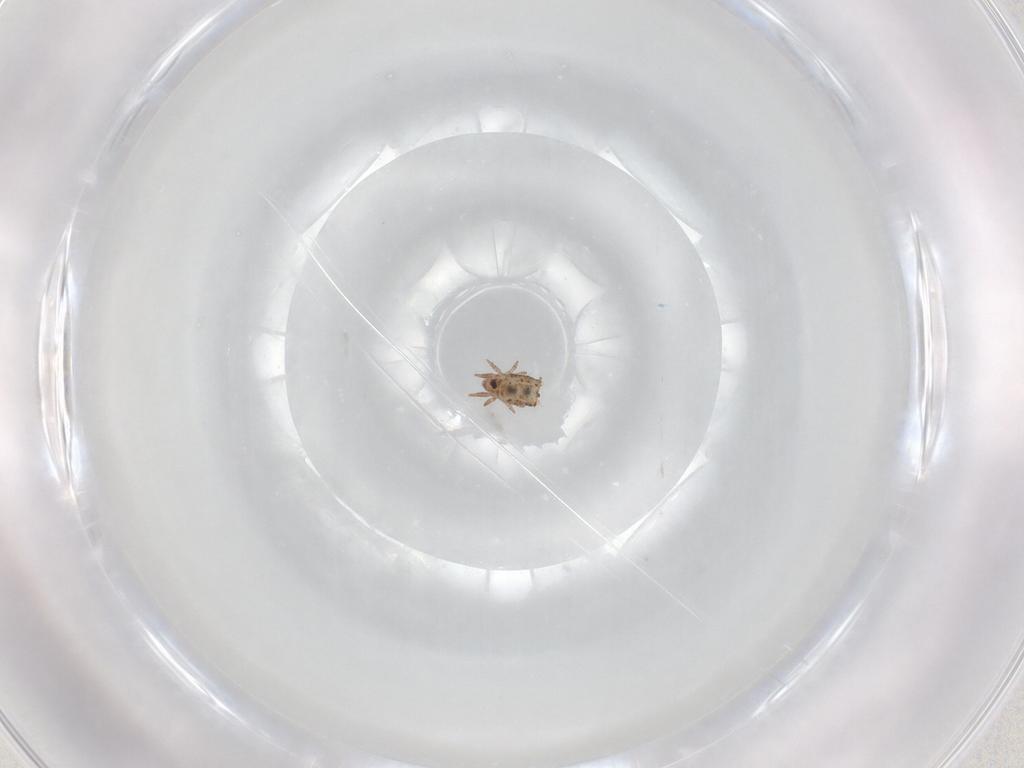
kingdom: Animalia
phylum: Arthropoda
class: Arachnida
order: Sarcoptiformes
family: Crotoniidae
